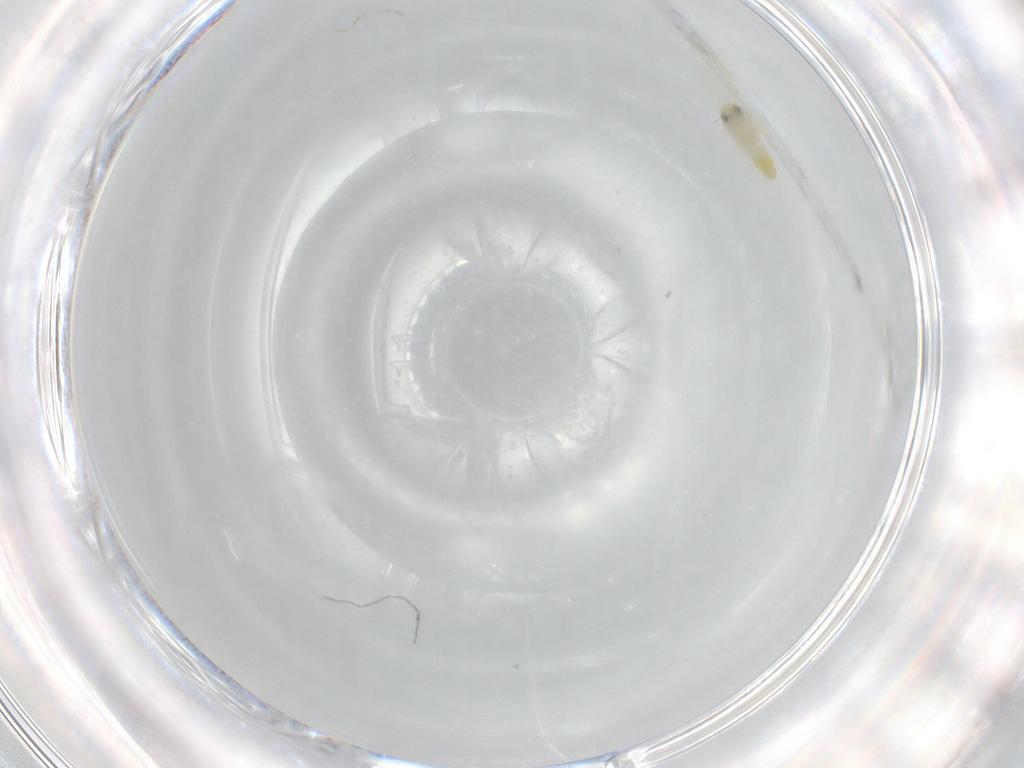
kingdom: Animalia
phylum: Arthropoda
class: Insecta
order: Hemiptera
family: Aleyrodidae
